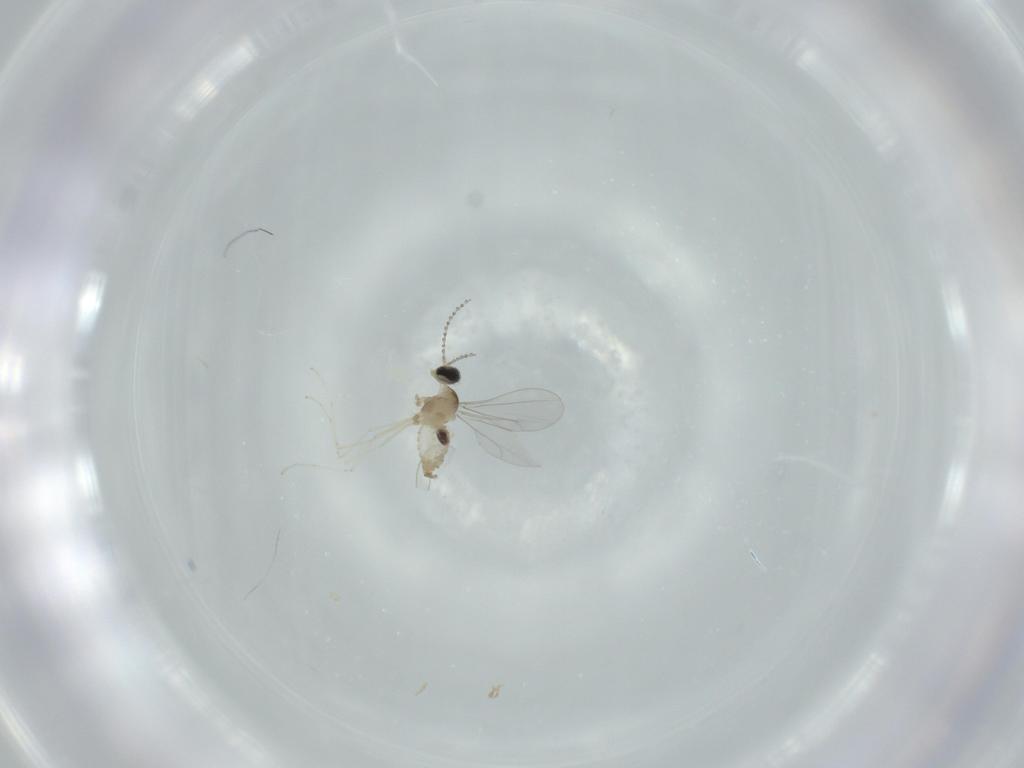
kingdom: Animalia
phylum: Arthropoda
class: Insecta
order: Diptera
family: Cecidomyiidae
